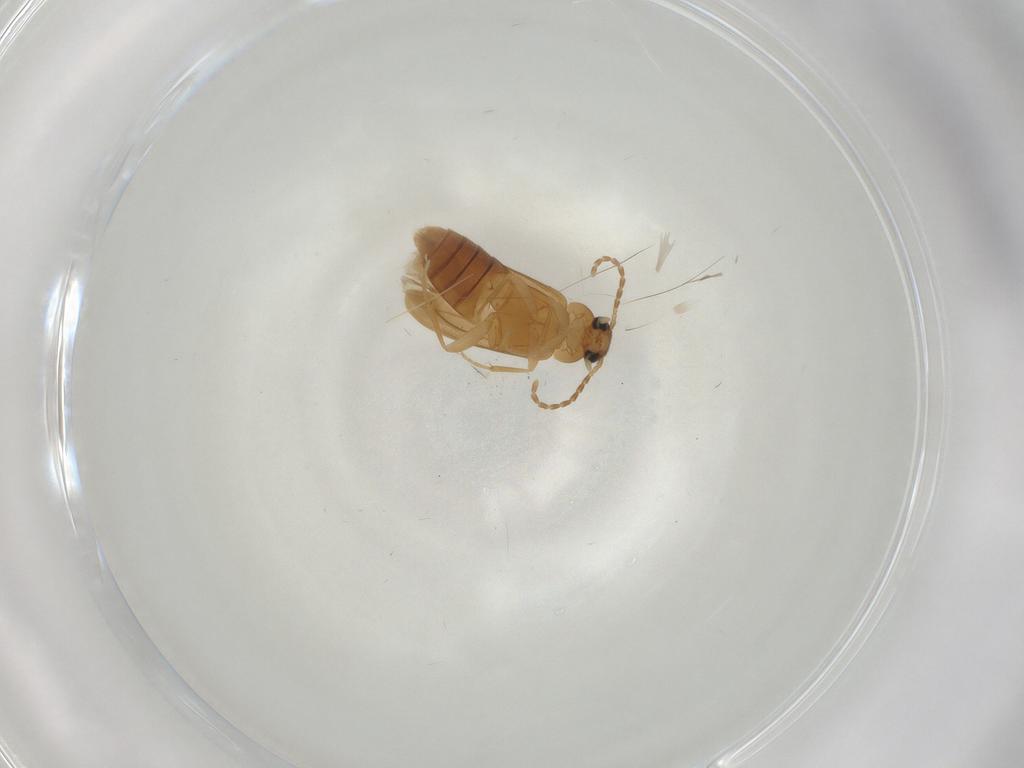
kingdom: Animalia
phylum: Arthropoda
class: Insecta
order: Coleoptera
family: Scraptiidae
